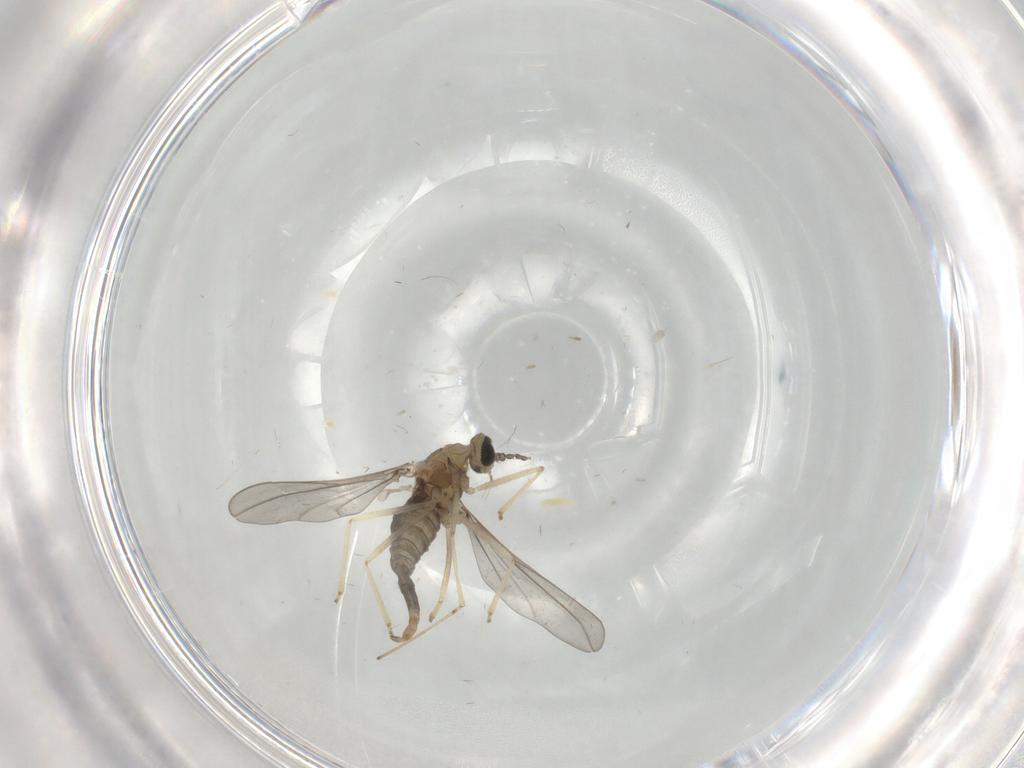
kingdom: Animalia
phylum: Arthropoda
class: Insecta
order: Diptera
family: Cecidomyiidae
